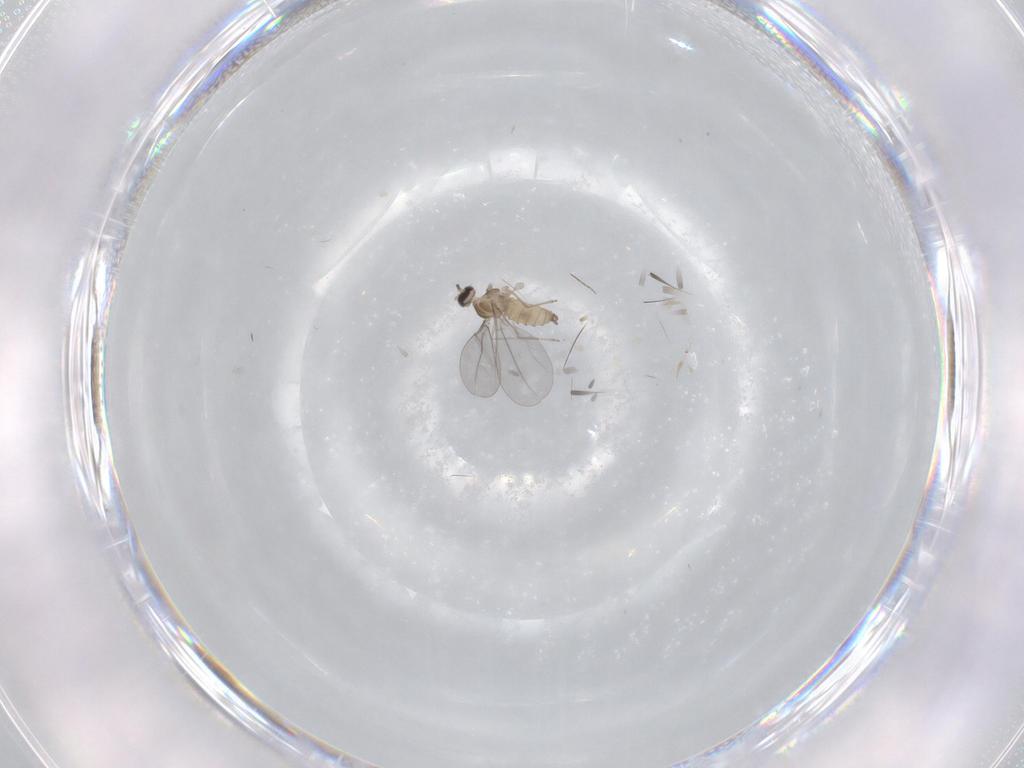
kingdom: Animalia
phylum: Arthropoda
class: Insecta
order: Diptera
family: Cecidomyiidae
